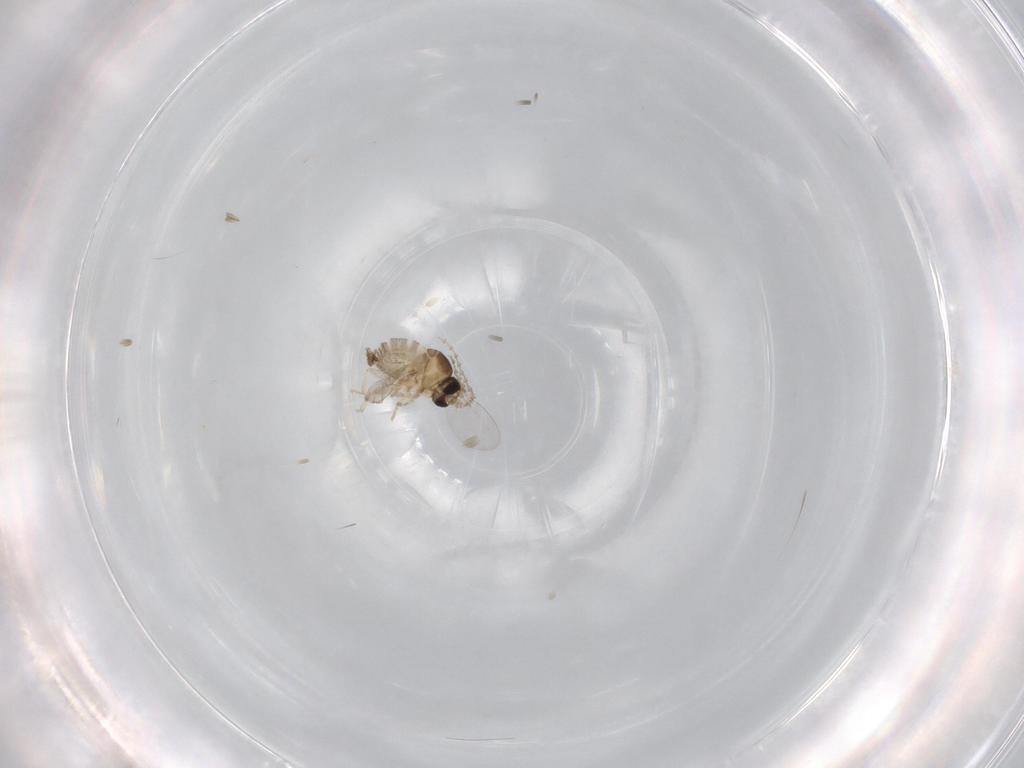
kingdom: Animalia
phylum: Arthropoda
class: Insecta
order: Diptera
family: Cecidomyiidae
